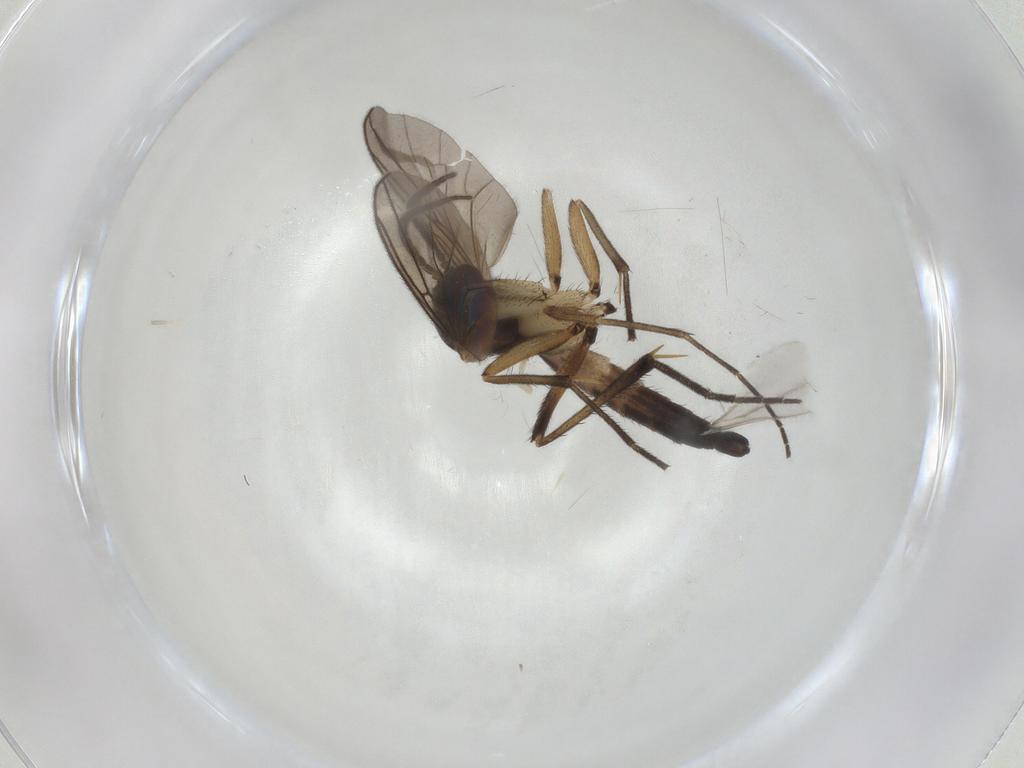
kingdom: Animalia
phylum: Arthropoda
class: Insecta
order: Diptera
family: Mycetophilidae
